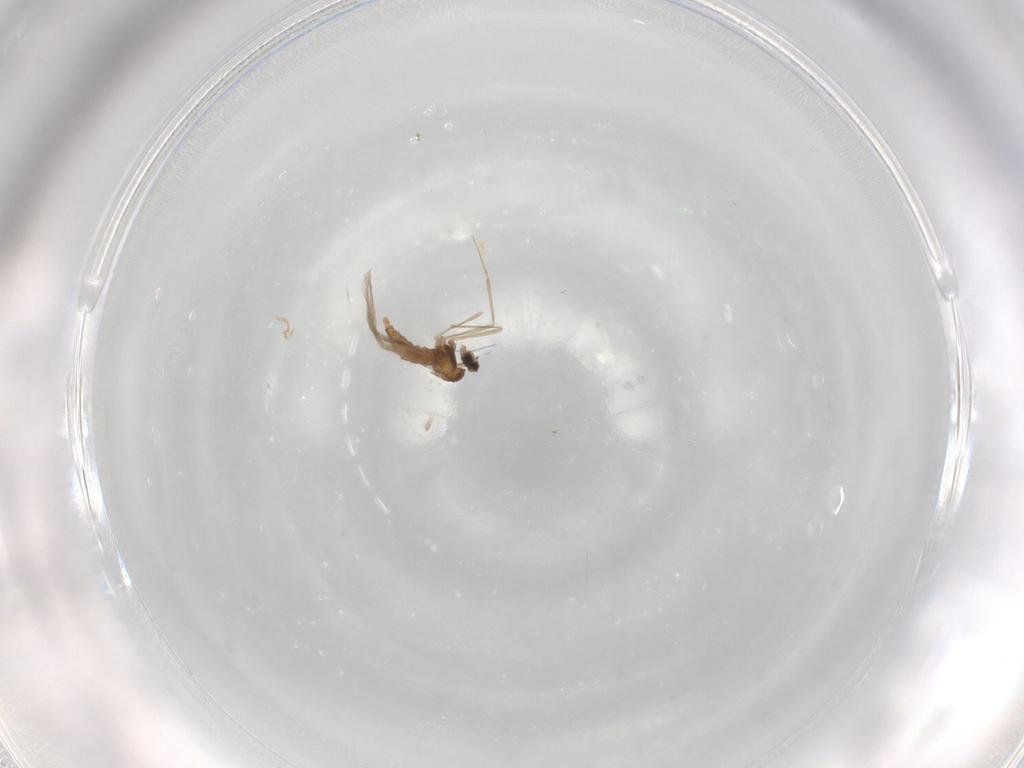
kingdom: Animalia
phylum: Arthropoda
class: Insecta
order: Diptera
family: Cecidomyiidae
